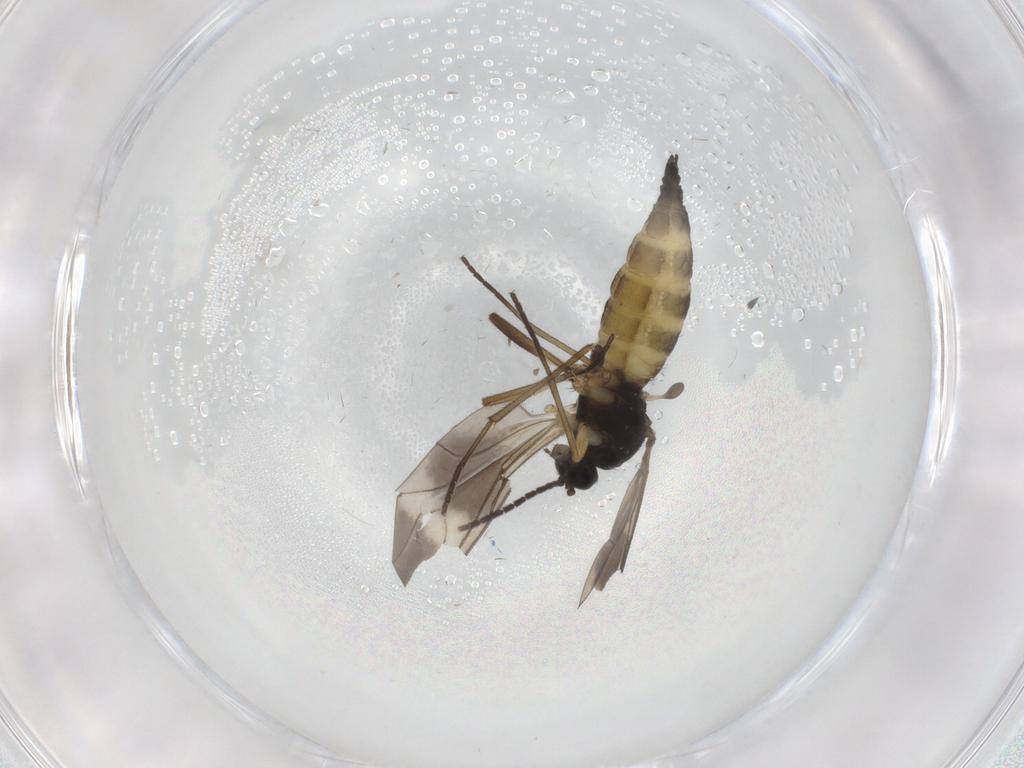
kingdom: Animalia
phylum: Arthropoda
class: Insecta
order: Diptera
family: Sciaridae
